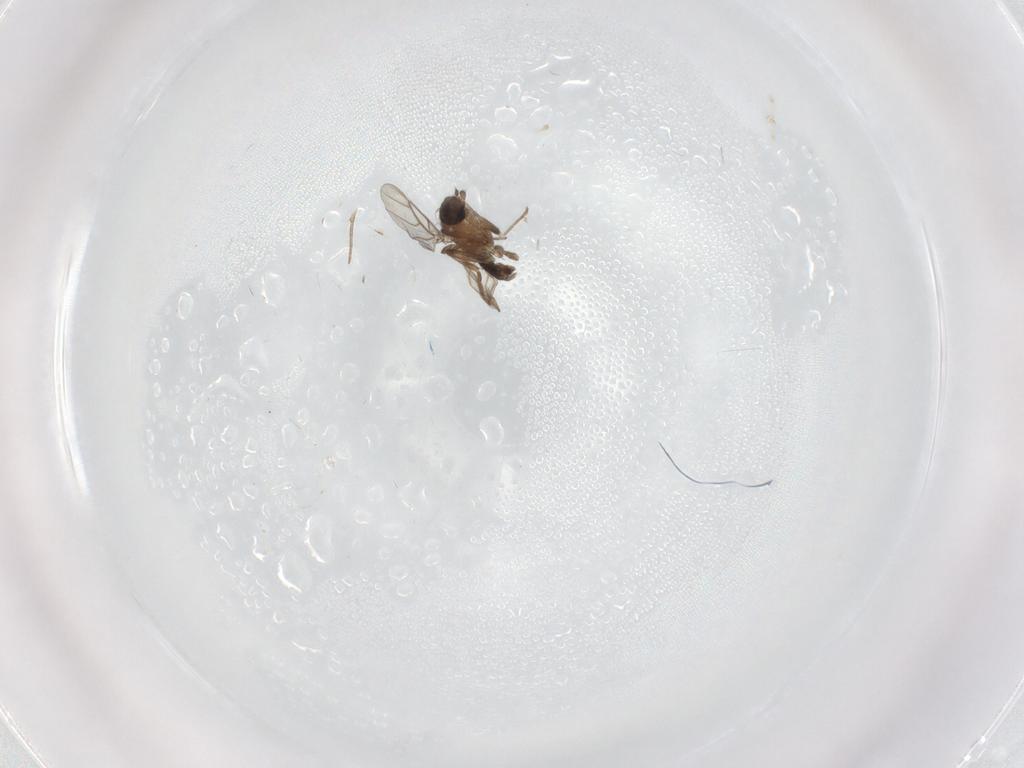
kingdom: Animalia
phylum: Arthropoda
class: Insecta
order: Diptera
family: Phoridae
